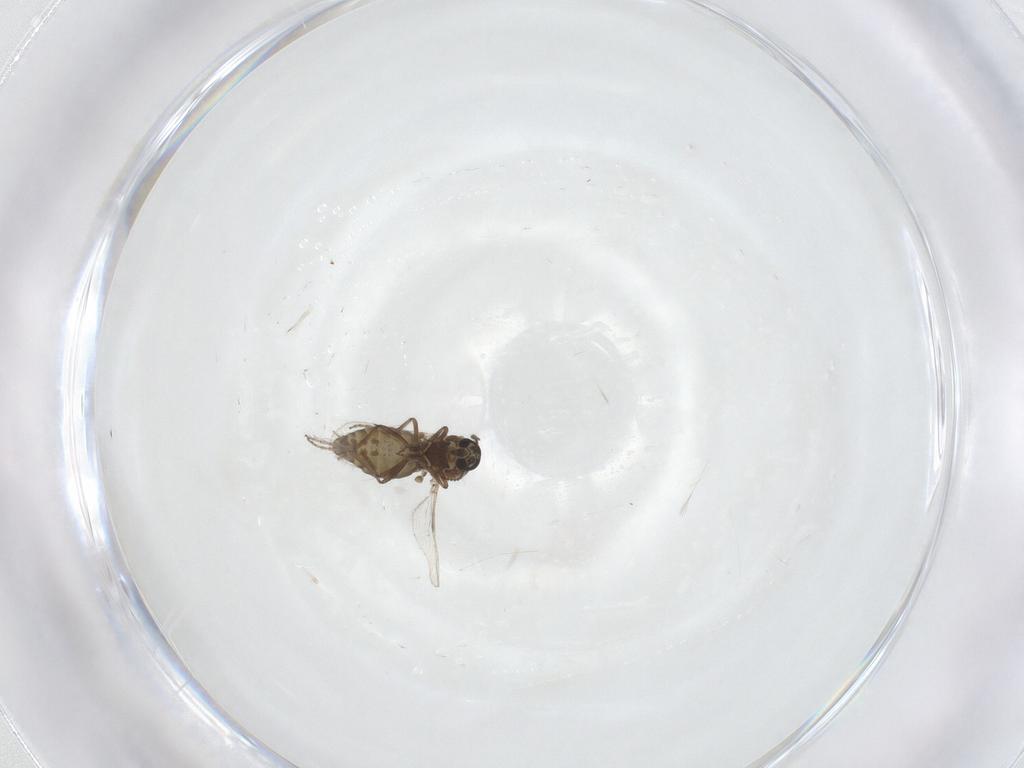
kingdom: Animalia
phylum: Arthropoda
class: Insecta
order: Diptera
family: Ceratopogonidae
